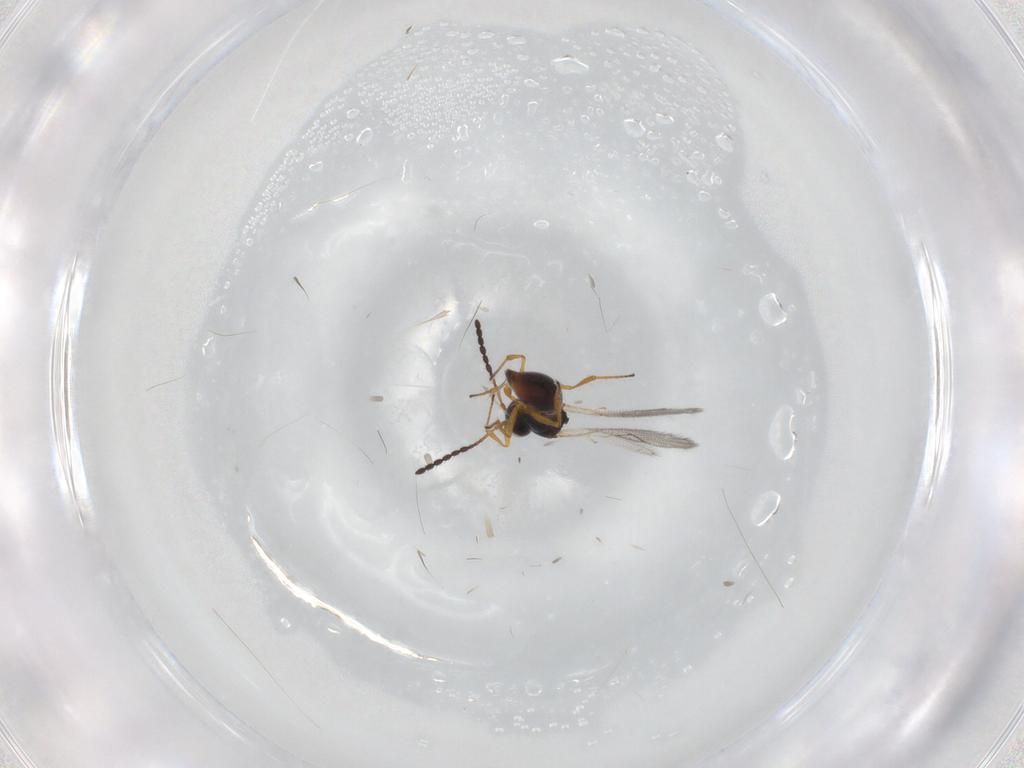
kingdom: Animalia
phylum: Arthropoda
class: Insecta
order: Hymenoptera
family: Figitidae
